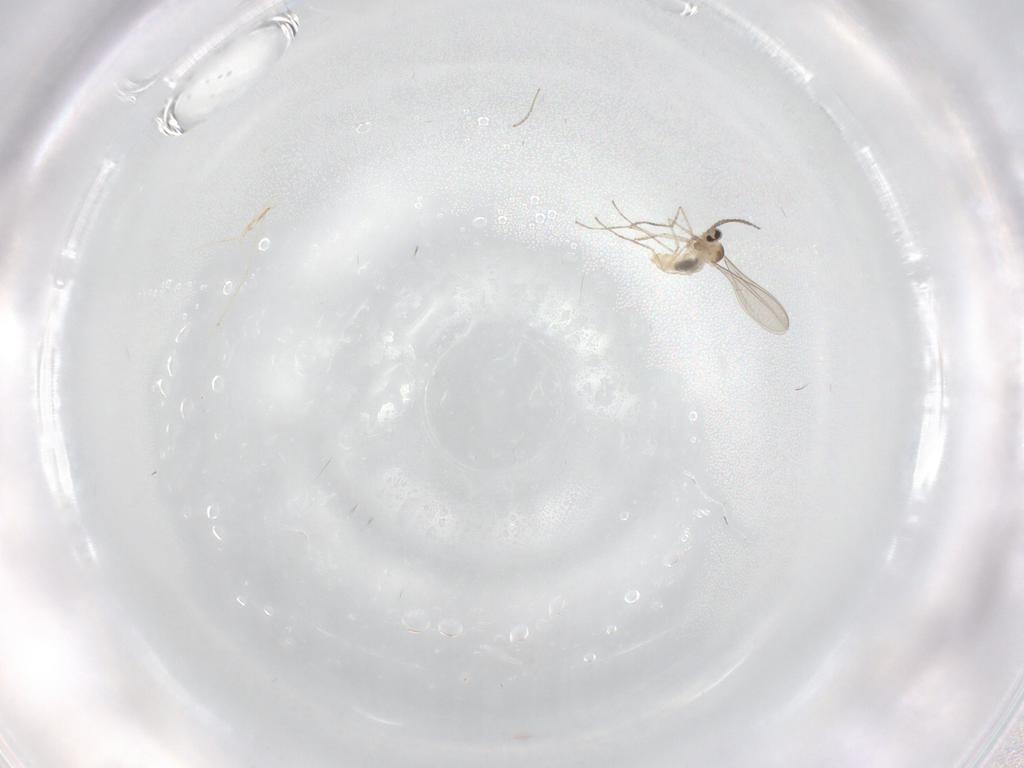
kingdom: Animalia
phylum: Arthropoda
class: Insecta
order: Diptera
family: Cecidomyiidae
